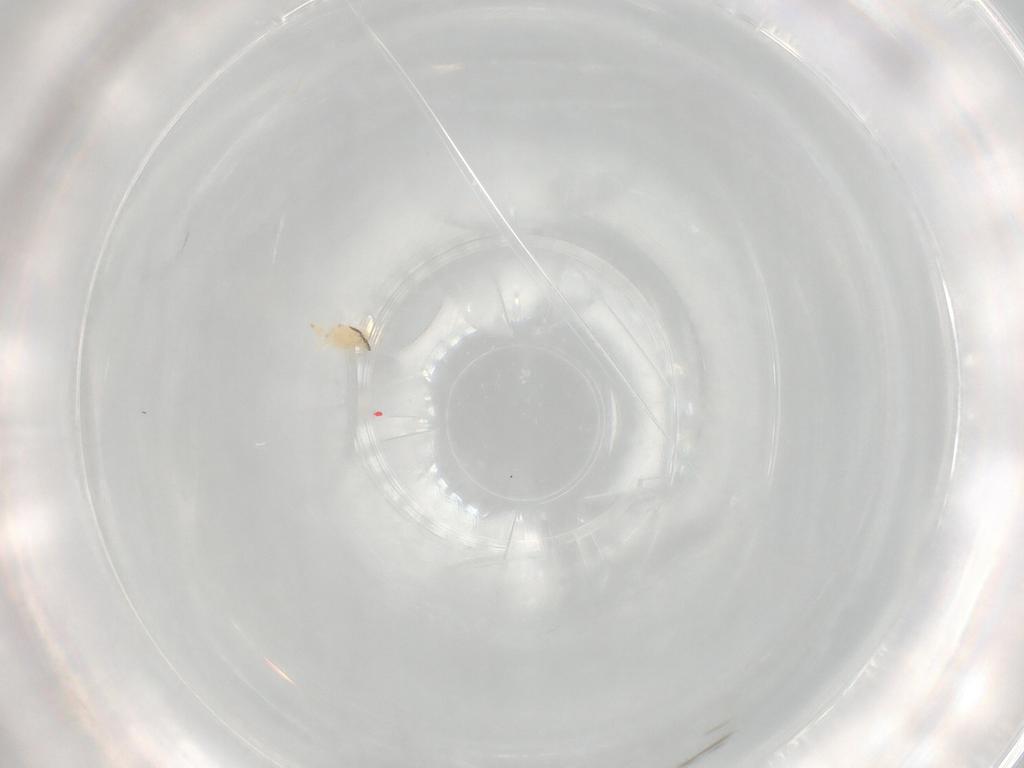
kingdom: Animalia
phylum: Arthropoda
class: Arachnida
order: Trombidiformes
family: Bdellidae
